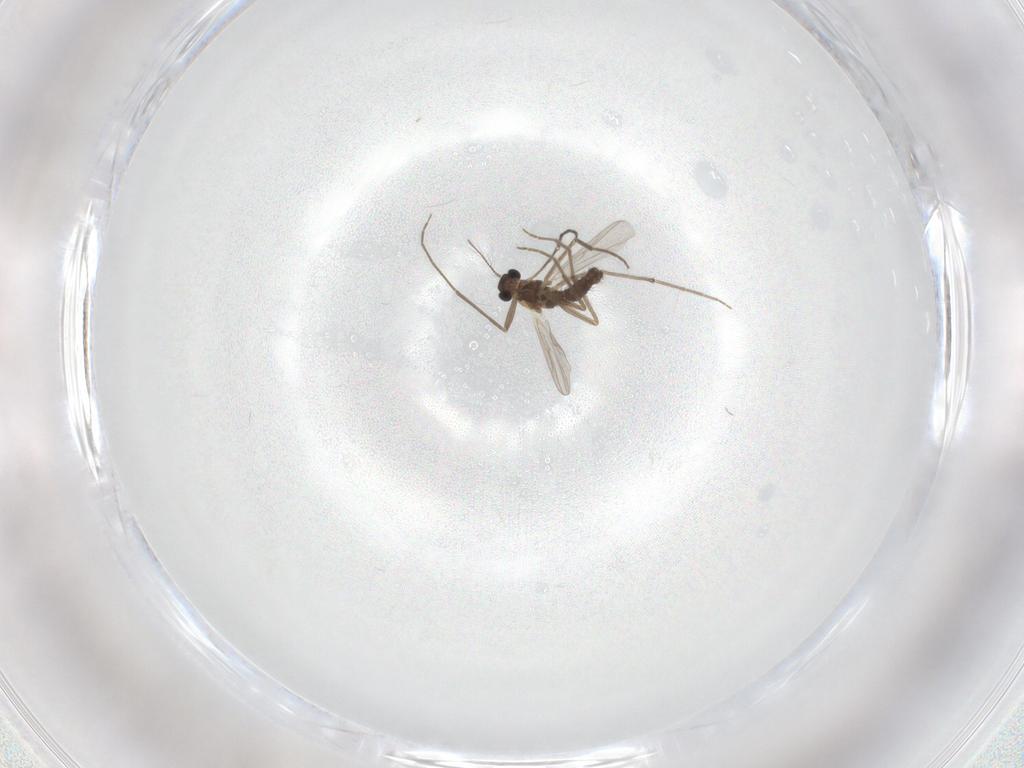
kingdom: Animalia
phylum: Arthropoda
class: Insecta
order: Diptera
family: Chironomidae
